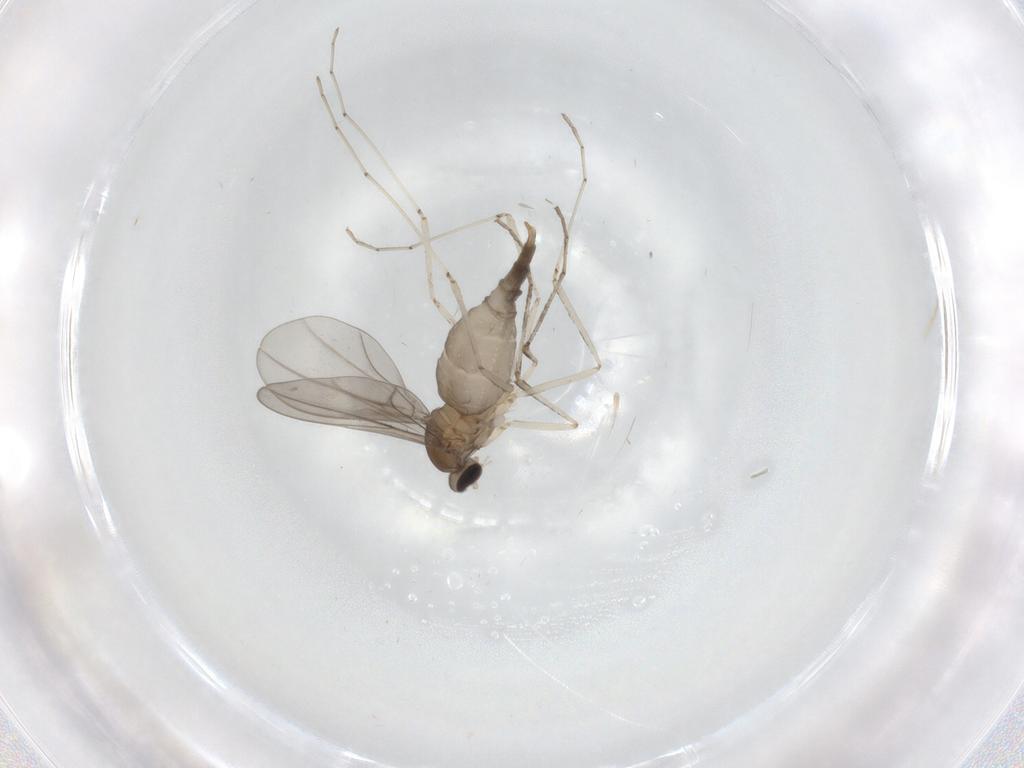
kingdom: Animalia
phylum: Arthropoda
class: Insecta
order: Diptera
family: Cecidomyiidae
